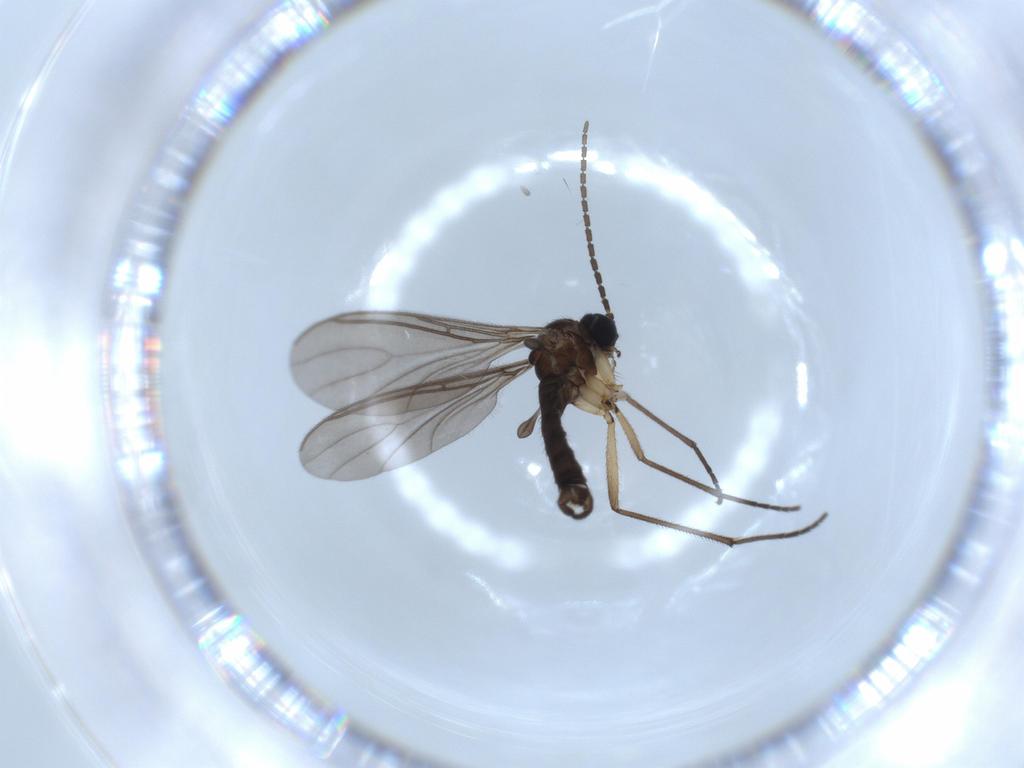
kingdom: Animalia
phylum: Arthropoda
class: Insecta
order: Diptera
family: Sciaridae
